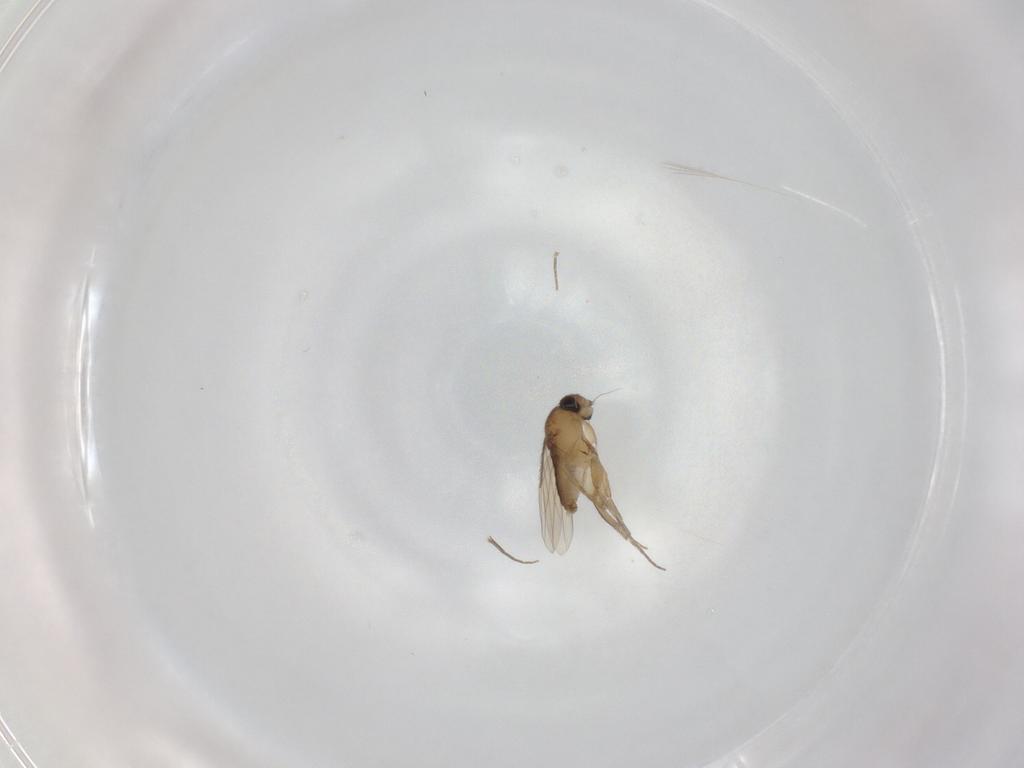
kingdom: Animalia
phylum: Arthropoda
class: Insecta
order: Diptera
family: Phoridae
